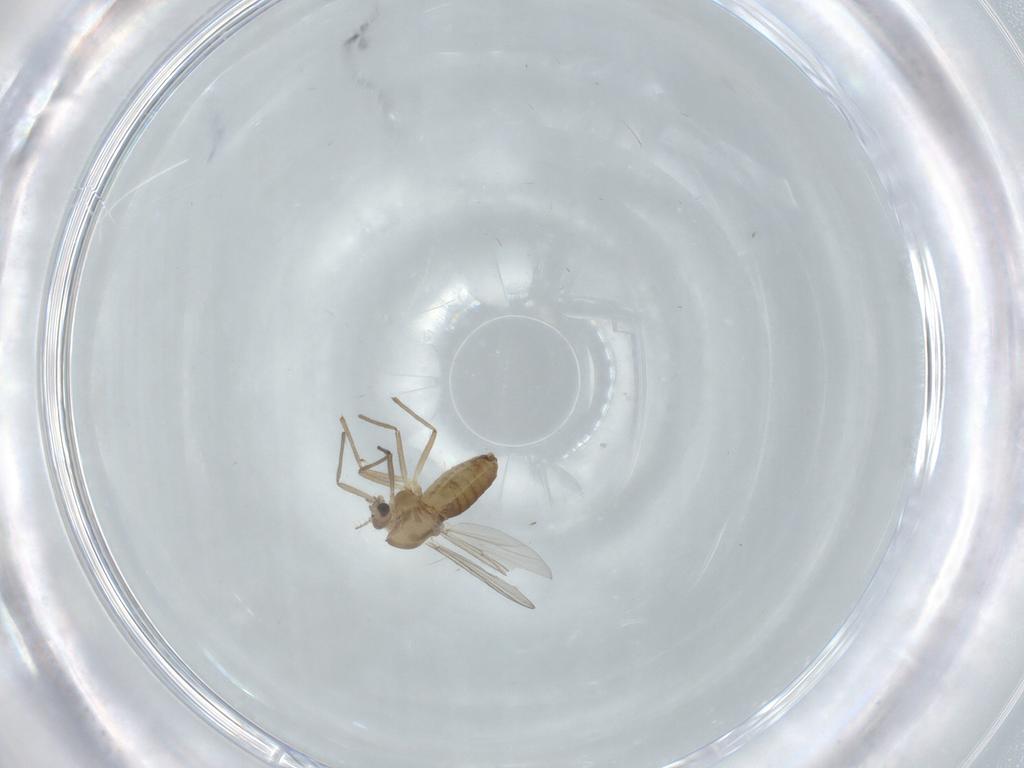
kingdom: Animalia
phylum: Arthropoda
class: Insecta
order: Diptera
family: Chironomidae
